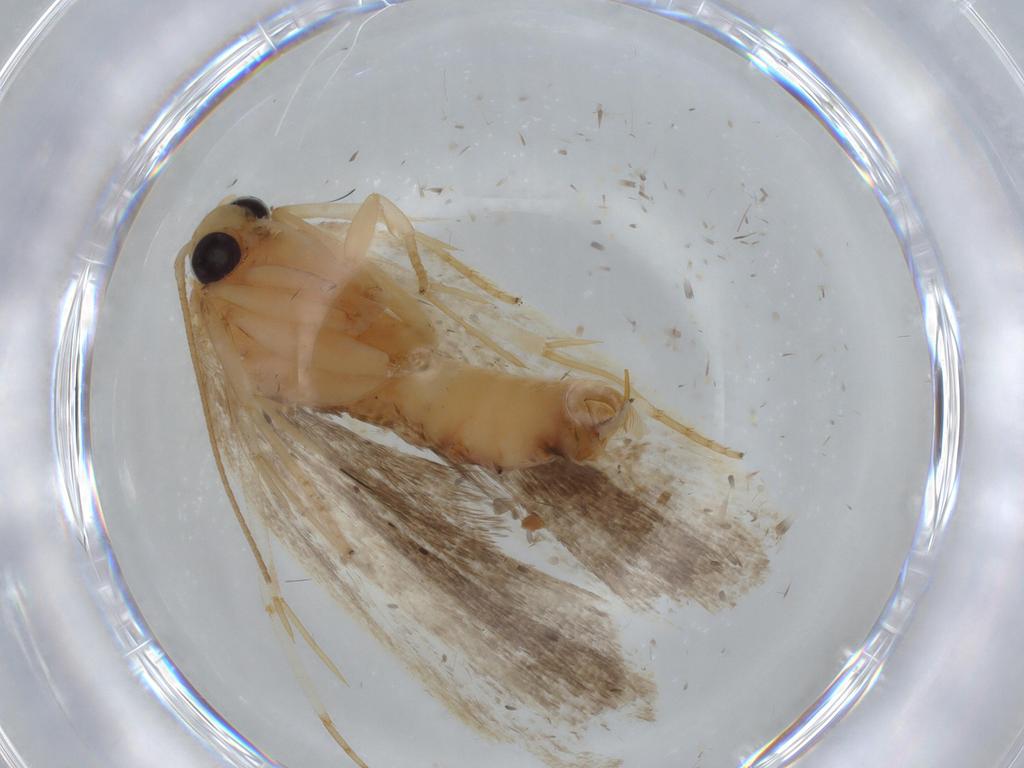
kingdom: Animalia
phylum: Arthropoda
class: Insecta
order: Lepidoptera
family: Depressariidae
